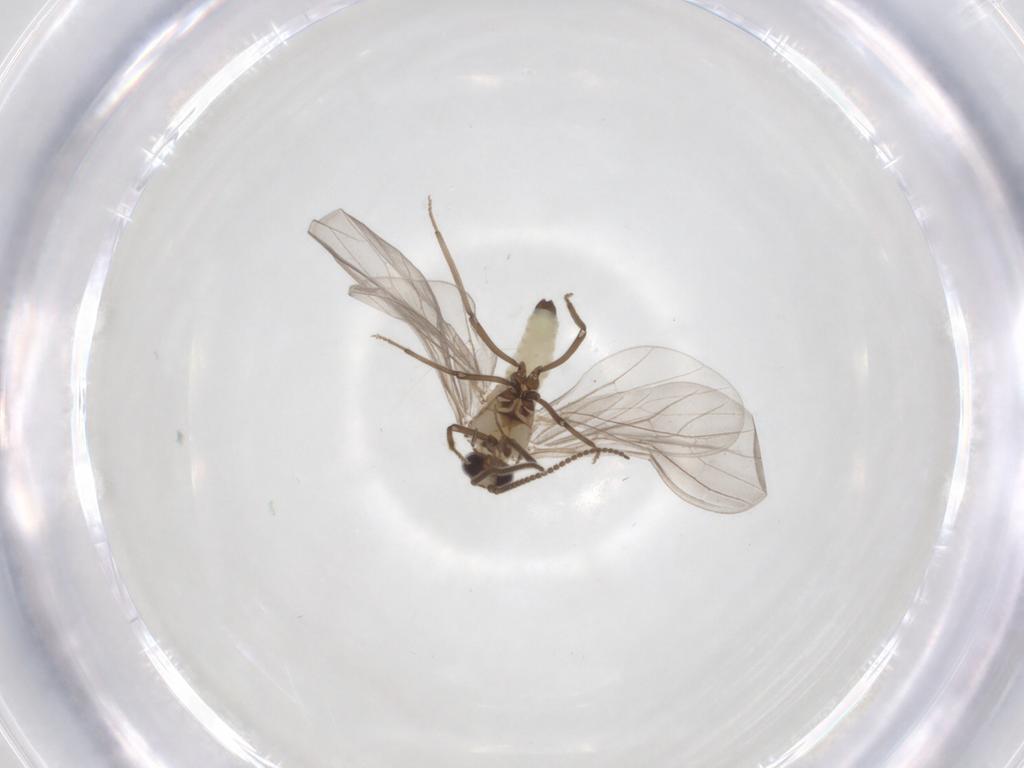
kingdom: Animalia
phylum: Arthropoda
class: Insecta
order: Neuroptera
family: Coniopterygidae
